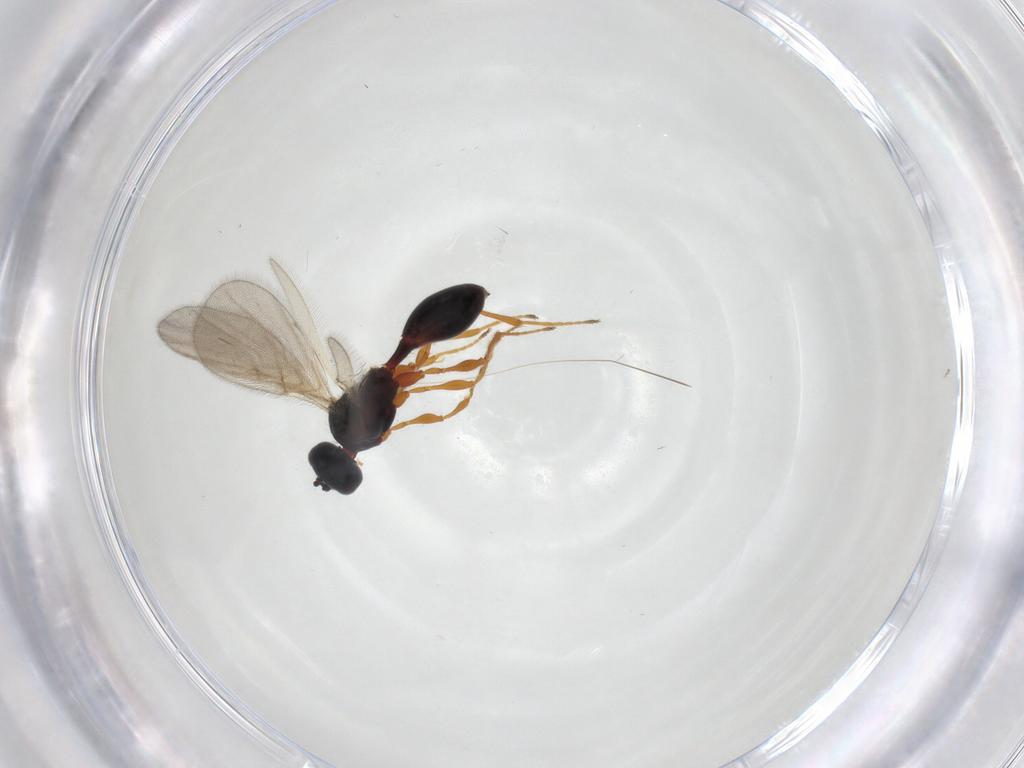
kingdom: Animalia
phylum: Arthropoda
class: Insecta
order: Hymenoptera
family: Diapriidae
